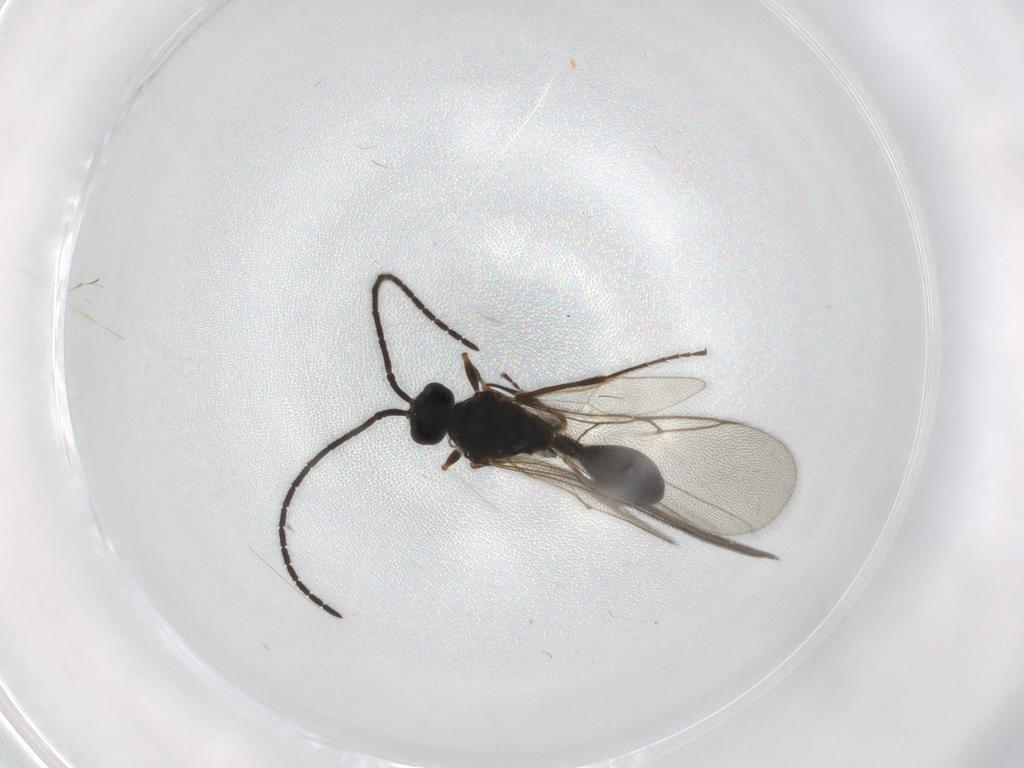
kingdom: Animalia
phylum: Arthropoda
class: Insecta
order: Hymenoptera
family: Diapriidae
